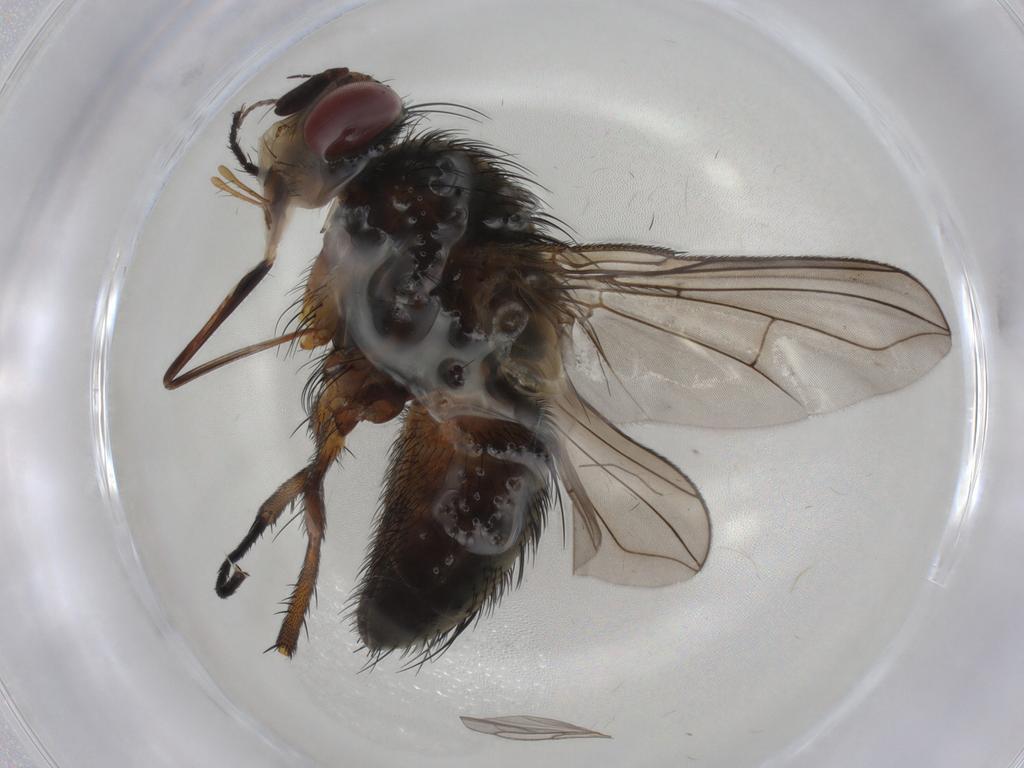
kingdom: Animalia
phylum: Arthropoda
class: Insecta
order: Diptera
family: Tachinidae
